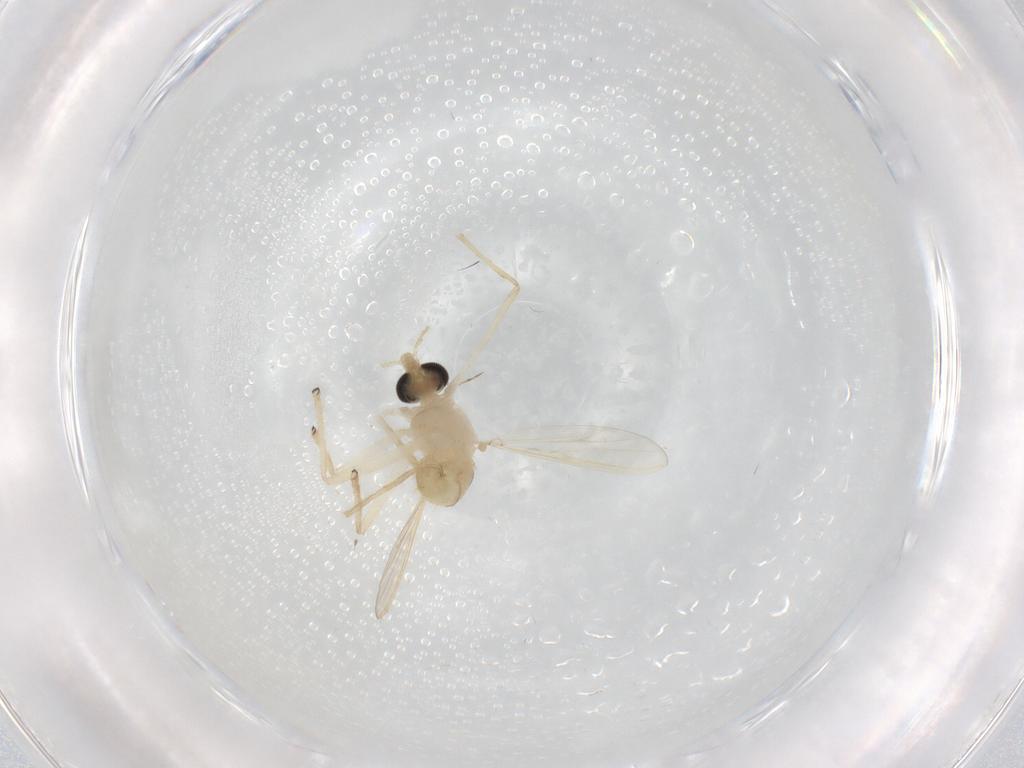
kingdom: Animalia
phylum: Arthropoda
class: Insecta
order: Diptera
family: Chironomidae
